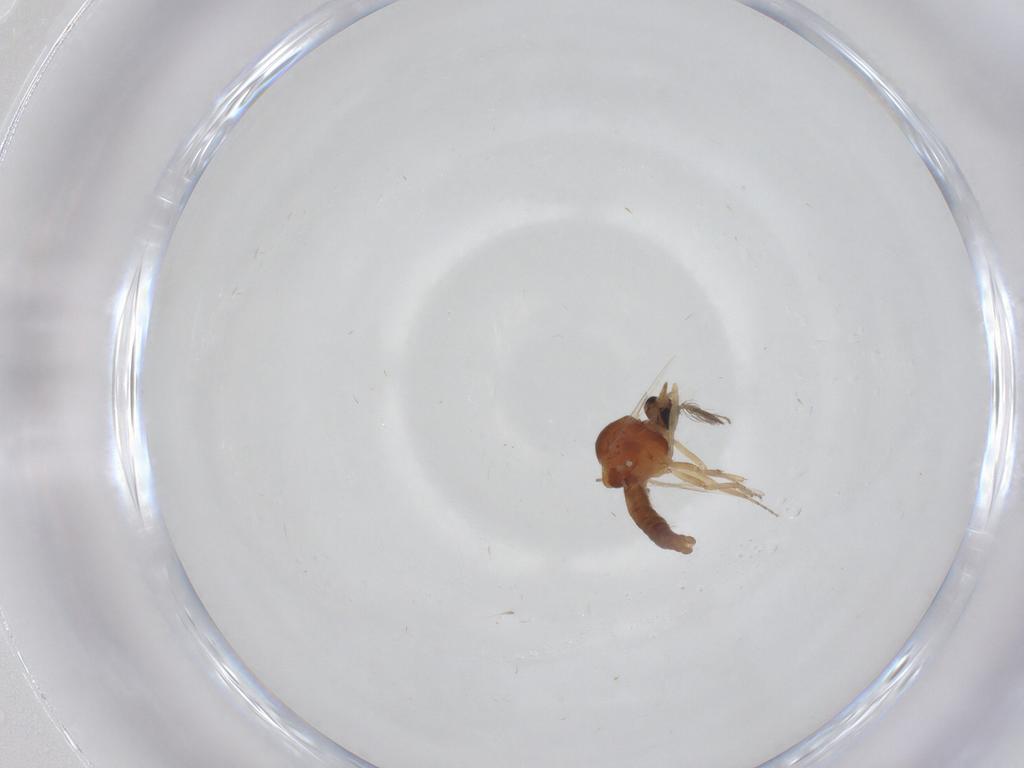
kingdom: Animalia
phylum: Arthropoda
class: Insecta
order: Diptera
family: Ceratopogonidae
